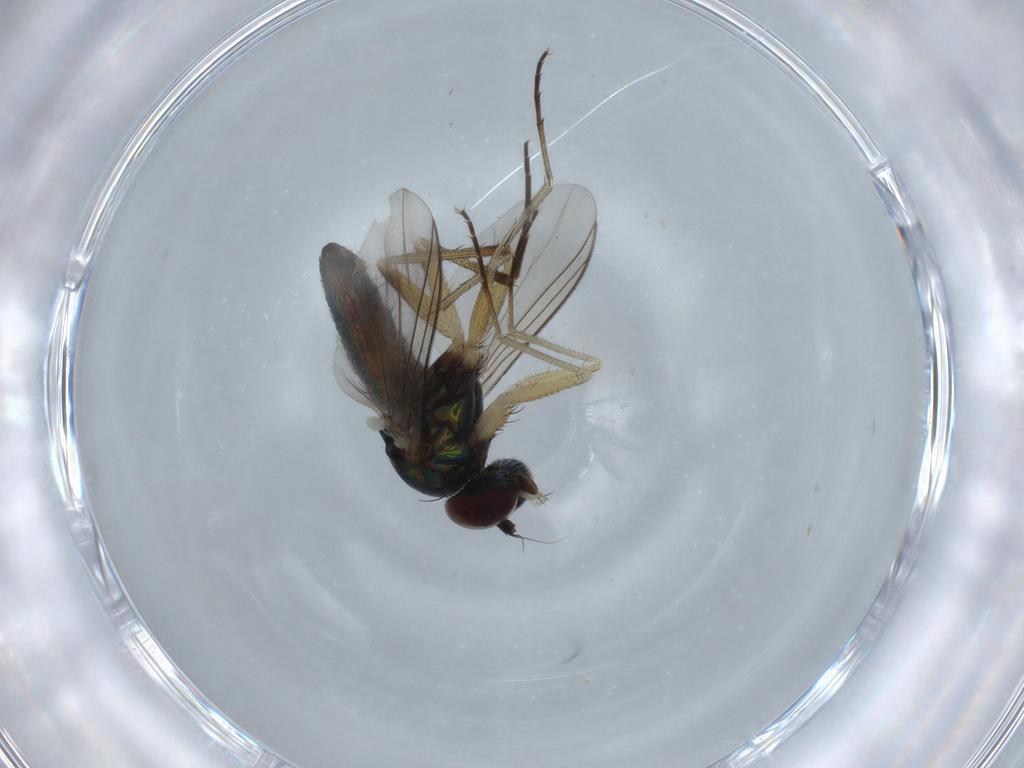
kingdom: Animalia
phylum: Arthropoda
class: Insecta
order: Diptera
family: Dolichopodidae
